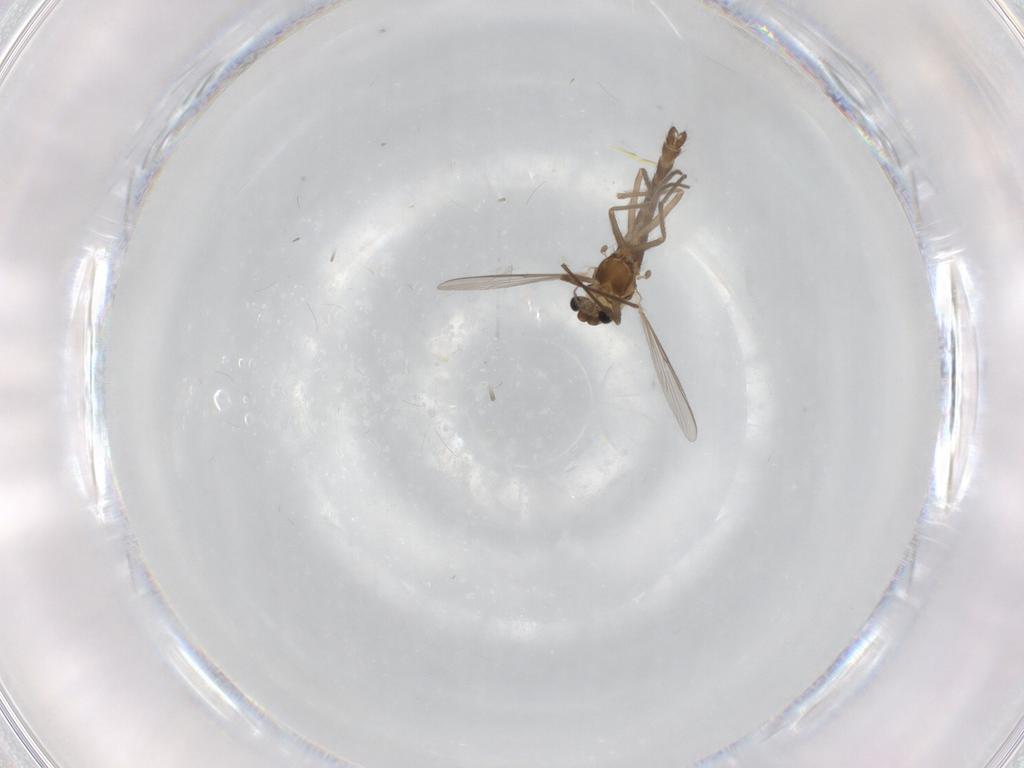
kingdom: Animalia
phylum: Arthropoda
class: Insecta
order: Diptera
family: Chironomidae
